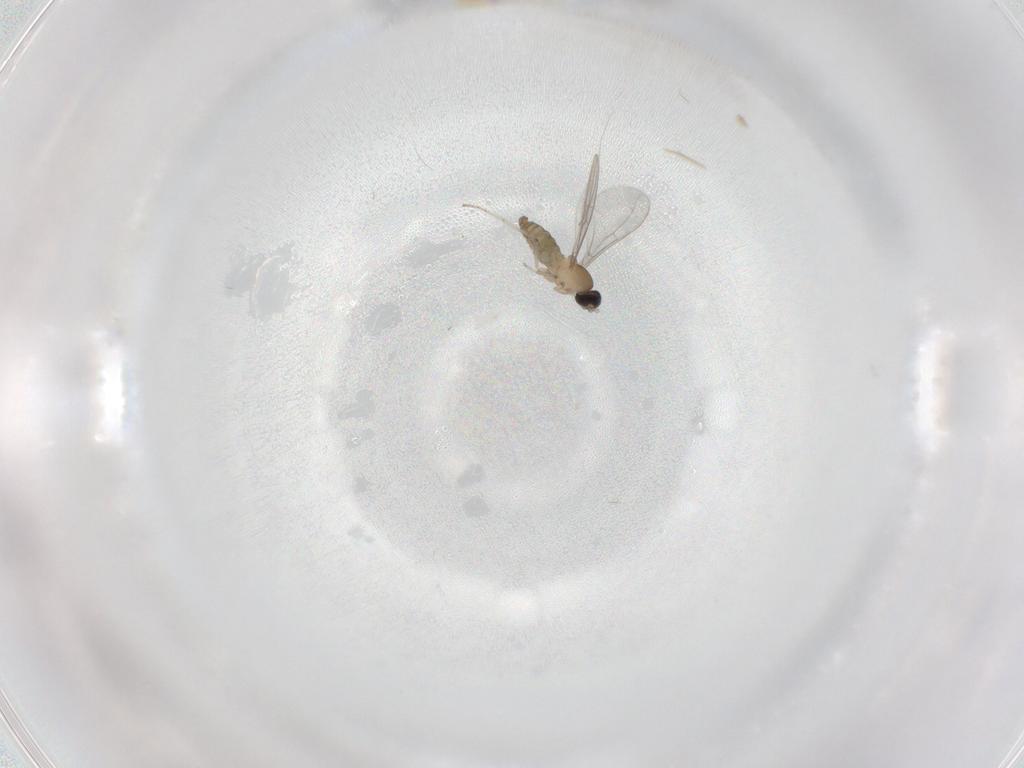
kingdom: Animalia
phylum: Arthropoda
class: Insecta
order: Diptera
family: Cecidomyiidae
